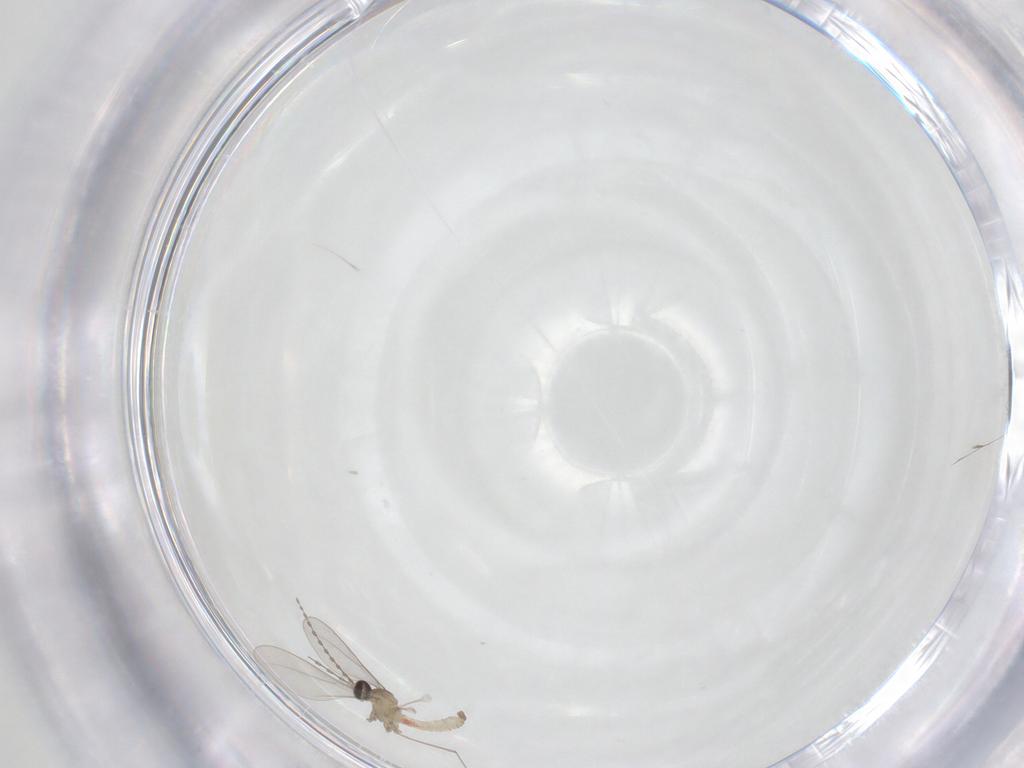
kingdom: Animalia
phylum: Arthropoda
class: Insecta
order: Diptera
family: Cecidomyiidae
